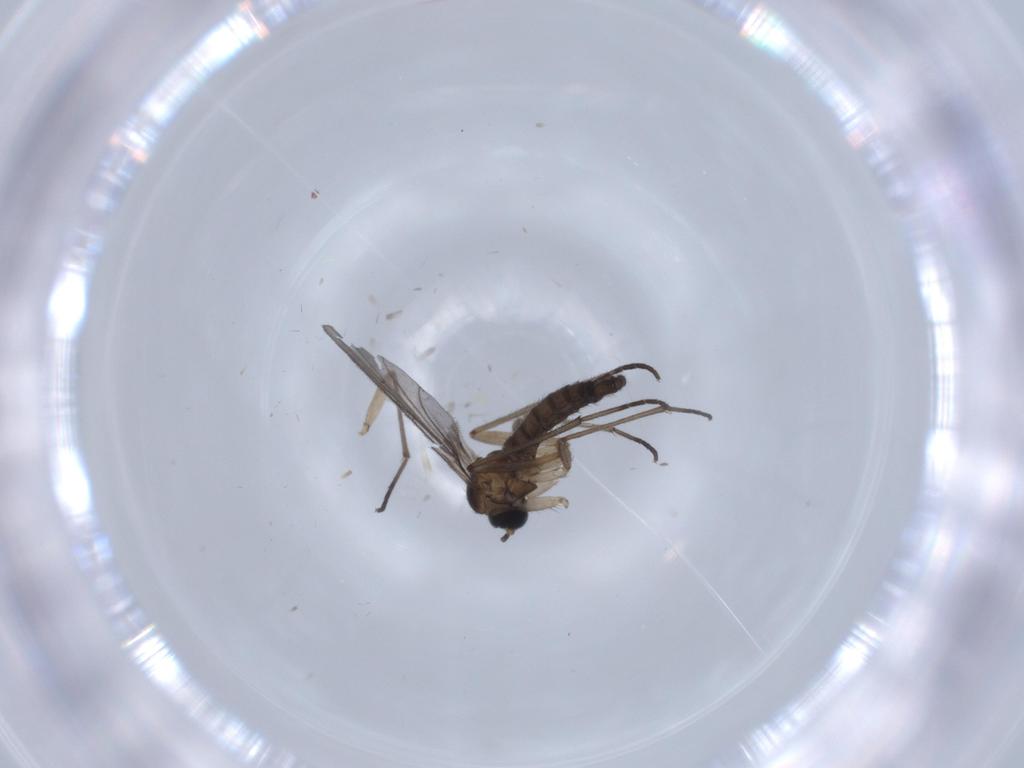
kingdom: Animalia
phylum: Arthropoda
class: Insecta
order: Diptera
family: Sciaridae
